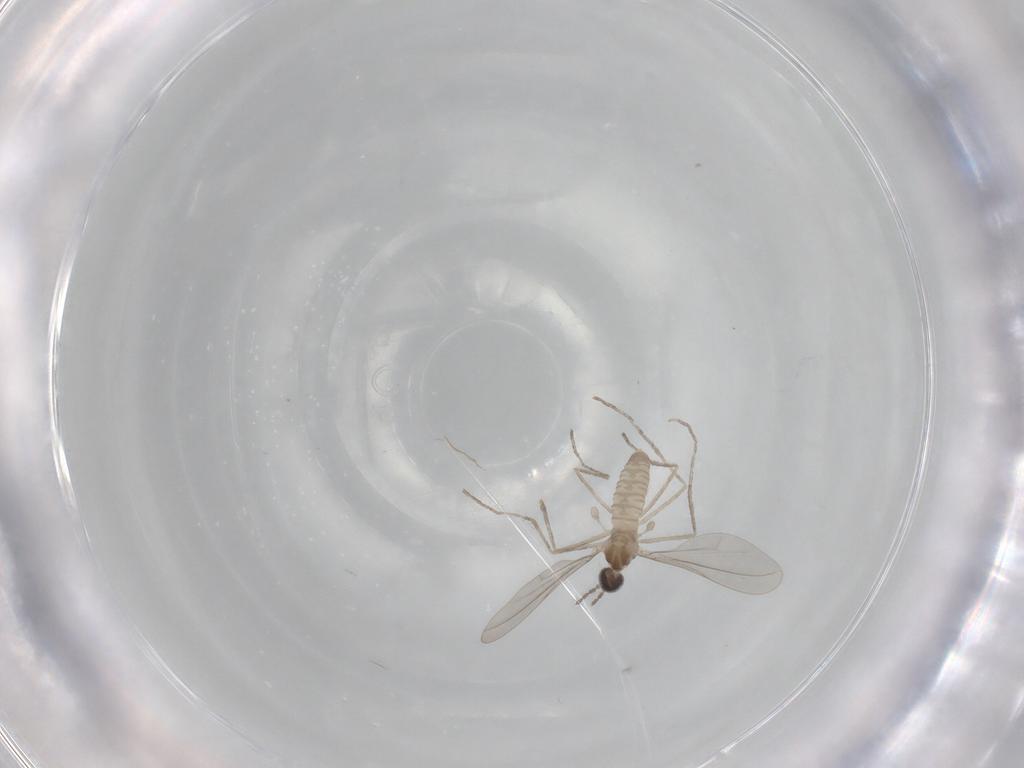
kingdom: Animalia
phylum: Arthropoda
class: Insecta
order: Diptera
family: Cecidomyiidae
